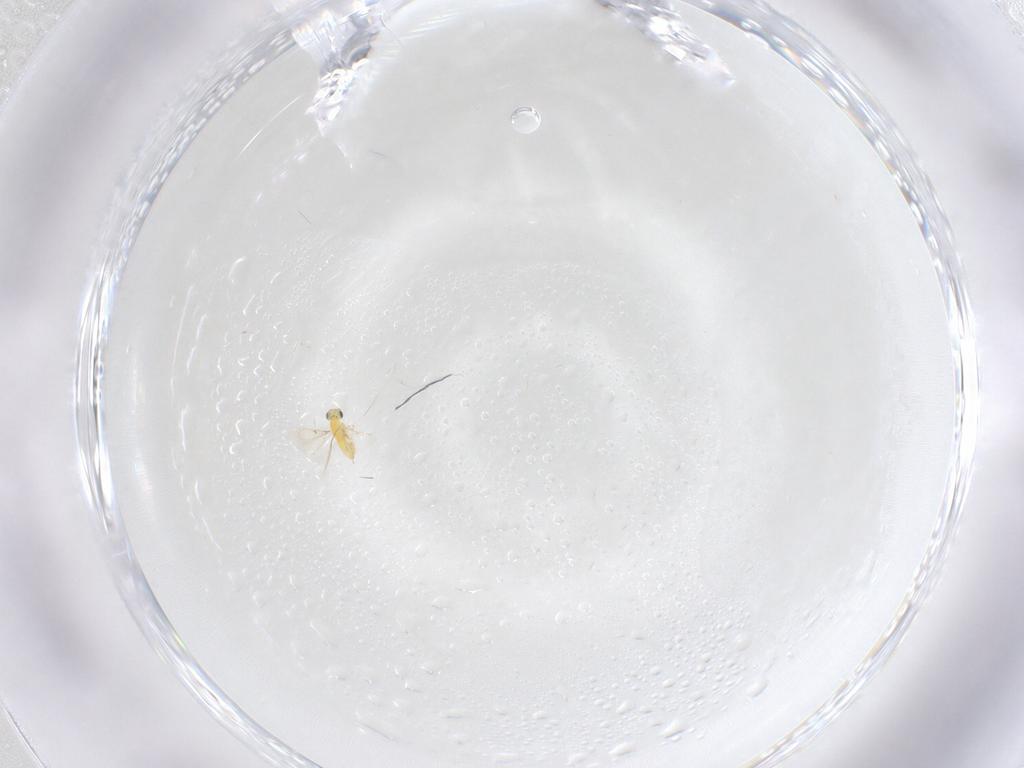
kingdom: Animalia
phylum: Arthropoda
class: Insecta
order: Hymenoptera
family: Trichogrammatidae
